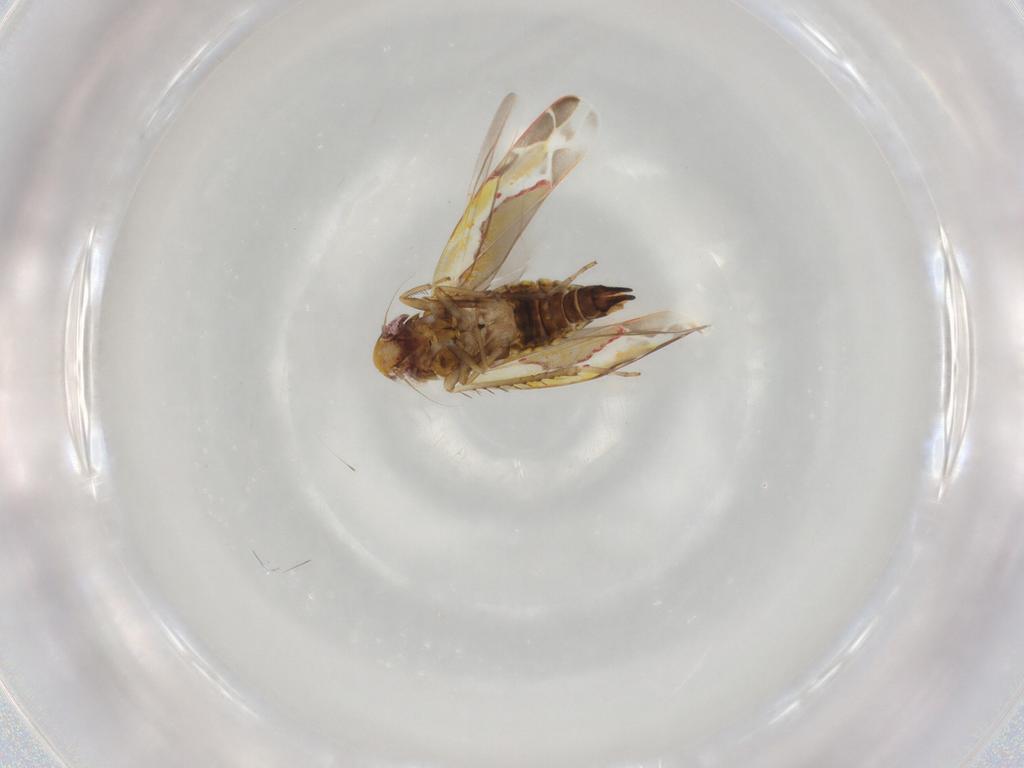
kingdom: Animalia
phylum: Arthropoda
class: Insecta
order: Hemiptera
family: Cicadellidae
